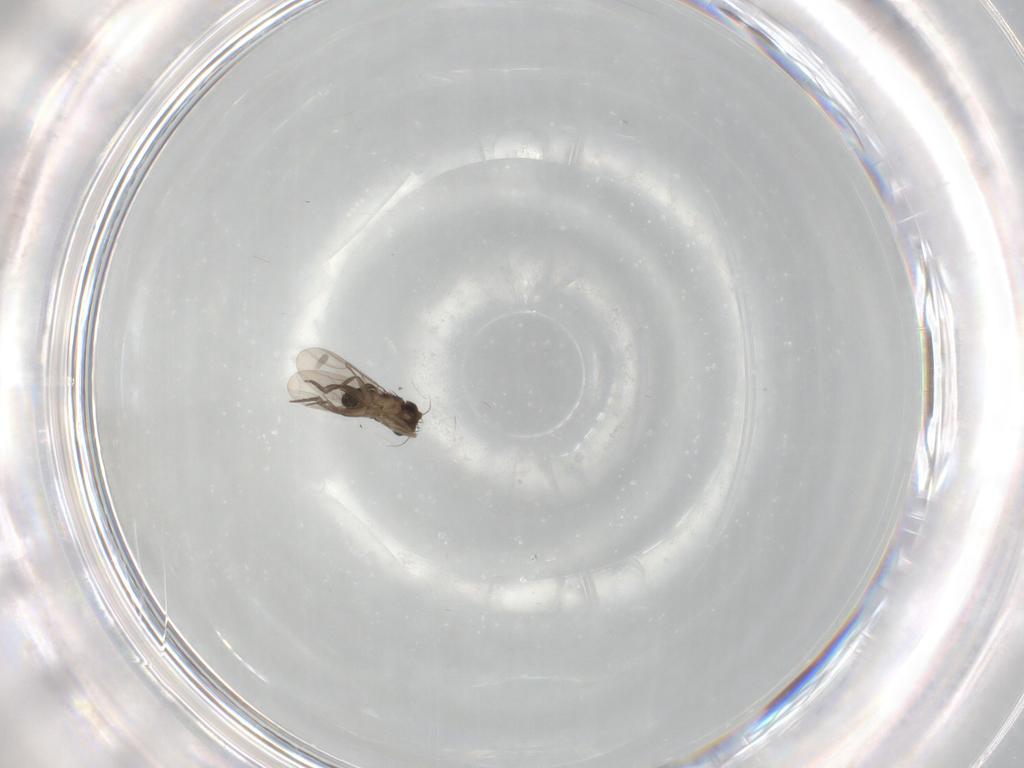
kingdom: Animalia
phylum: Arthropoda
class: Insecta
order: Diptera
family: Phoridae
